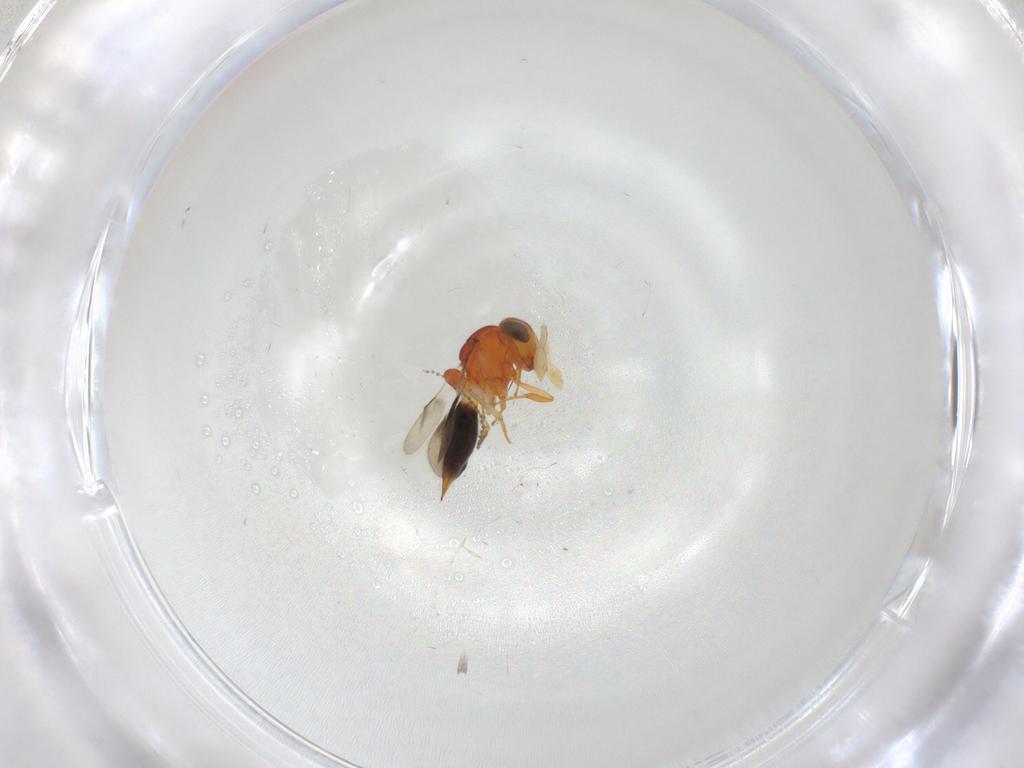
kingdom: Animalia
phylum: Arthropoda
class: Insecta
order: Hymenoptera
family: Scelionidae
